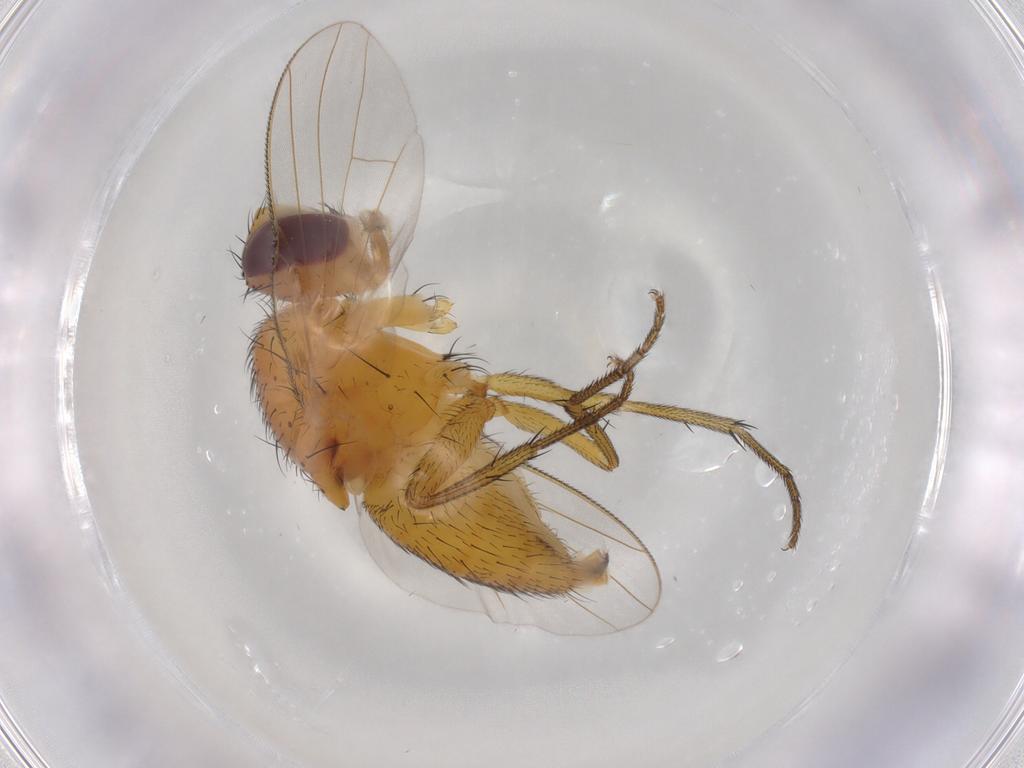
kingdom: Animalia
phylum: Arthropoda
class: Insecta
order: Diptera
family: Muscidae
